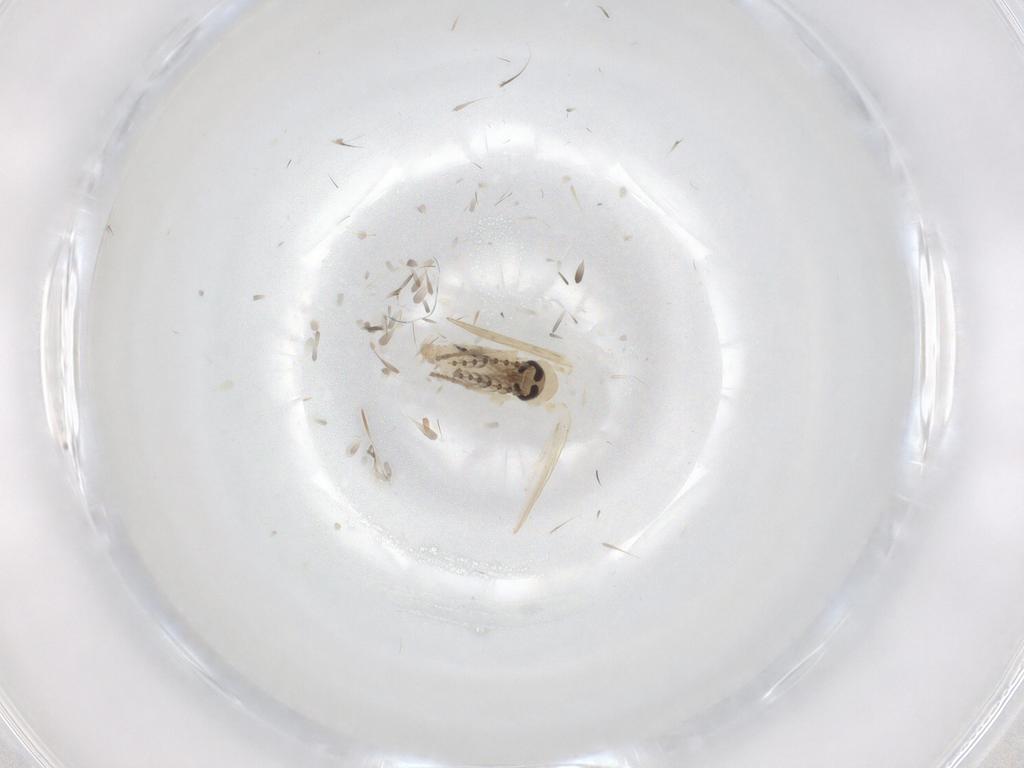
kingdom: Animalia
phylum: Arthropoda
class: Insecta
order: Diptera
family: Psychodidae
